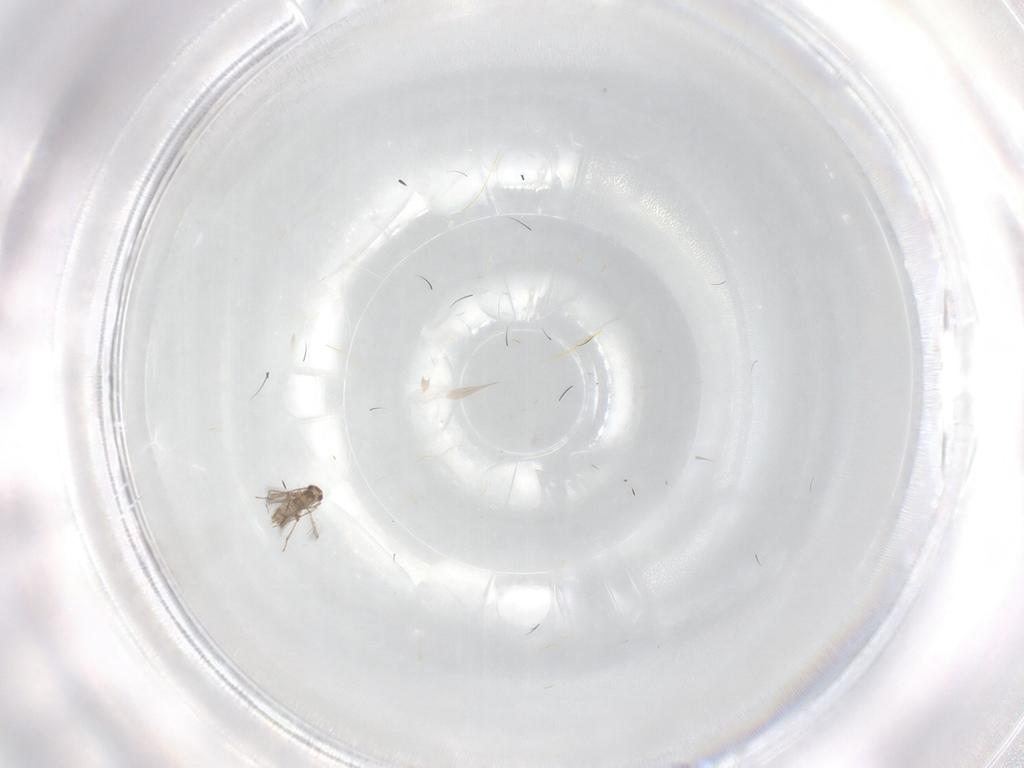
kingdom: Animalia
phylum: Arthropoda
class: Insecta
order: Hymenoptera
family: Mymaridae
